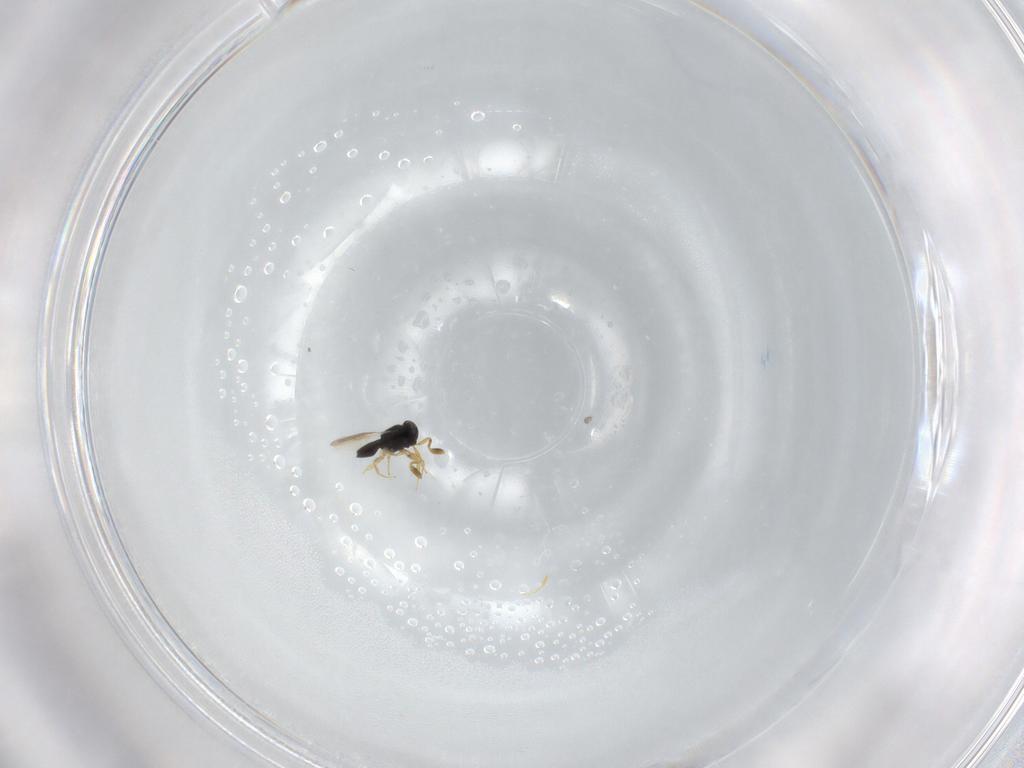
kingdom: Animalia
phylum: Arthropoda
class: Insecta
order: Hymenoptera
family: Scelionidae
